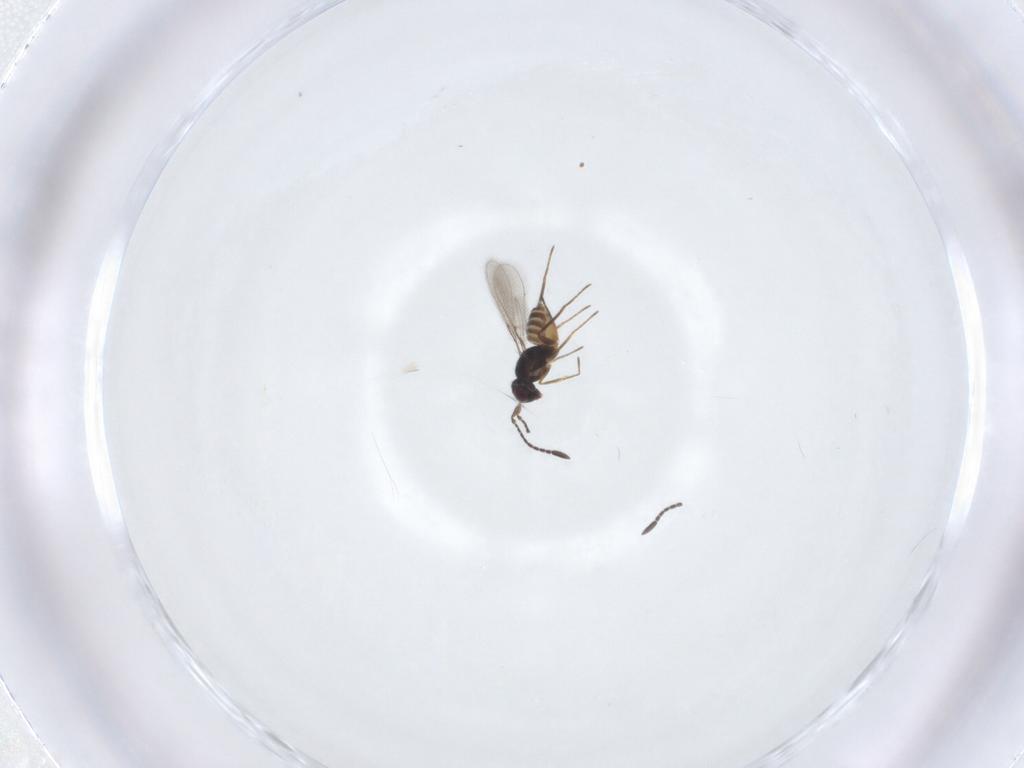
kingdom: Animalia
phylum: Arthropoda
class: Insecta
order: Hymenoptera
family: Mymaridae
